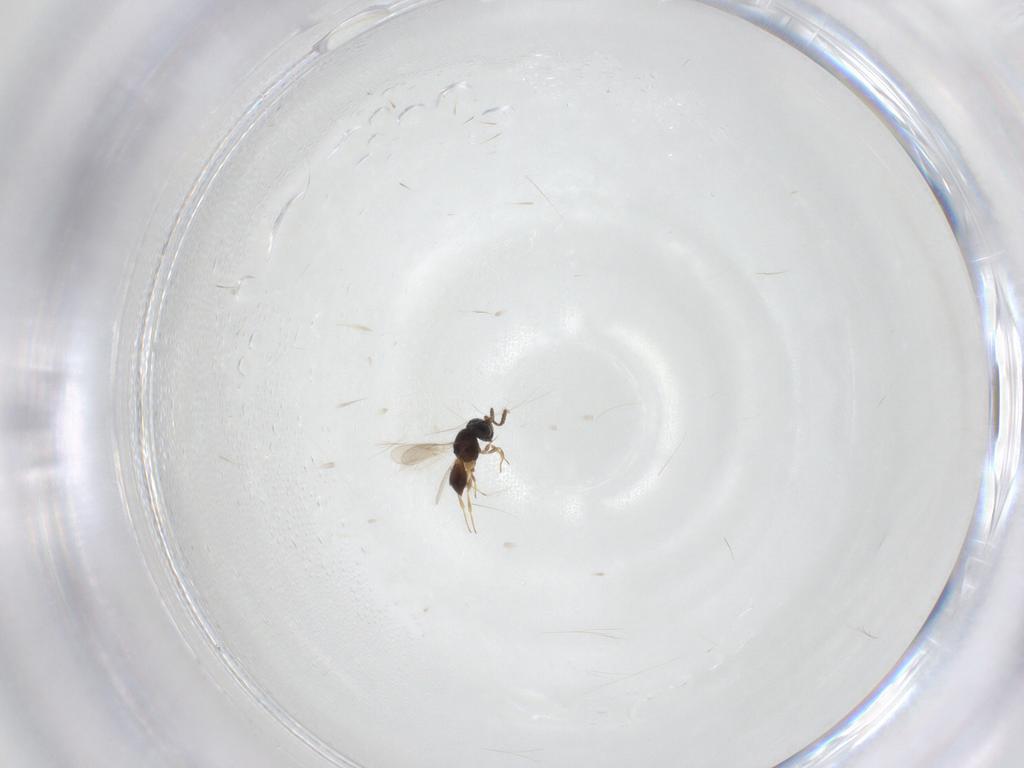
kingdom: Animalia
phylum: Arthropoda
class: Insecta
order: Hymenoptera
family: Scelionidae
